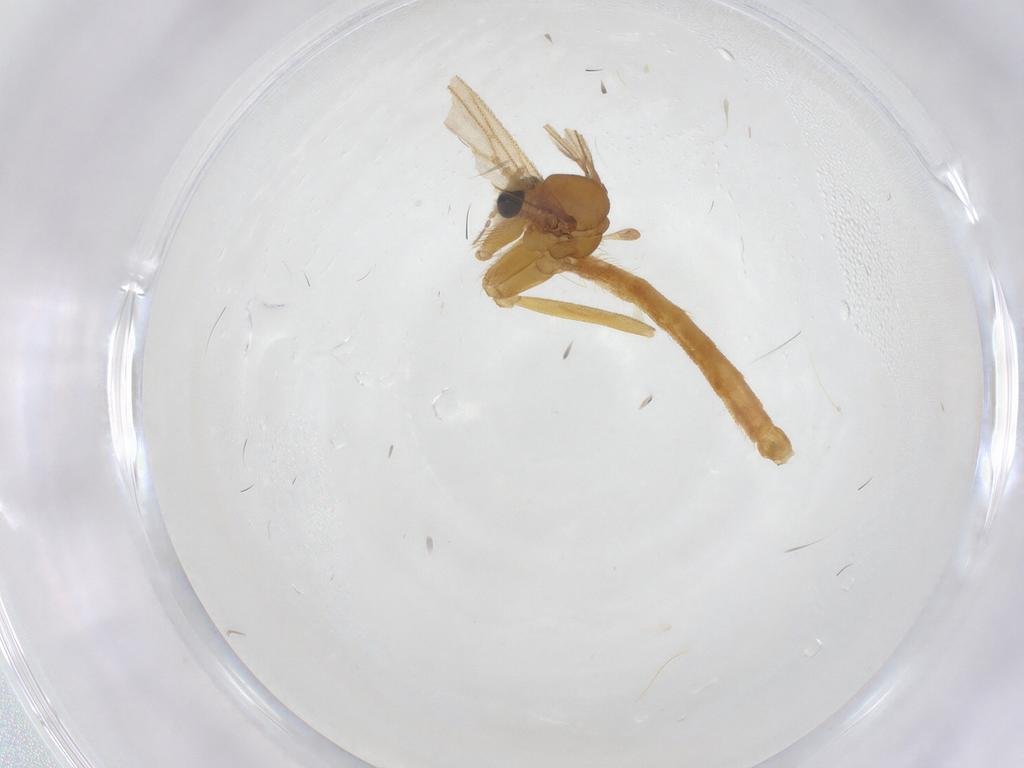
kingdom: Animalia
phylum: Arthropoda
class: Insecta
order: Diptera
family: Mycetophilidae
